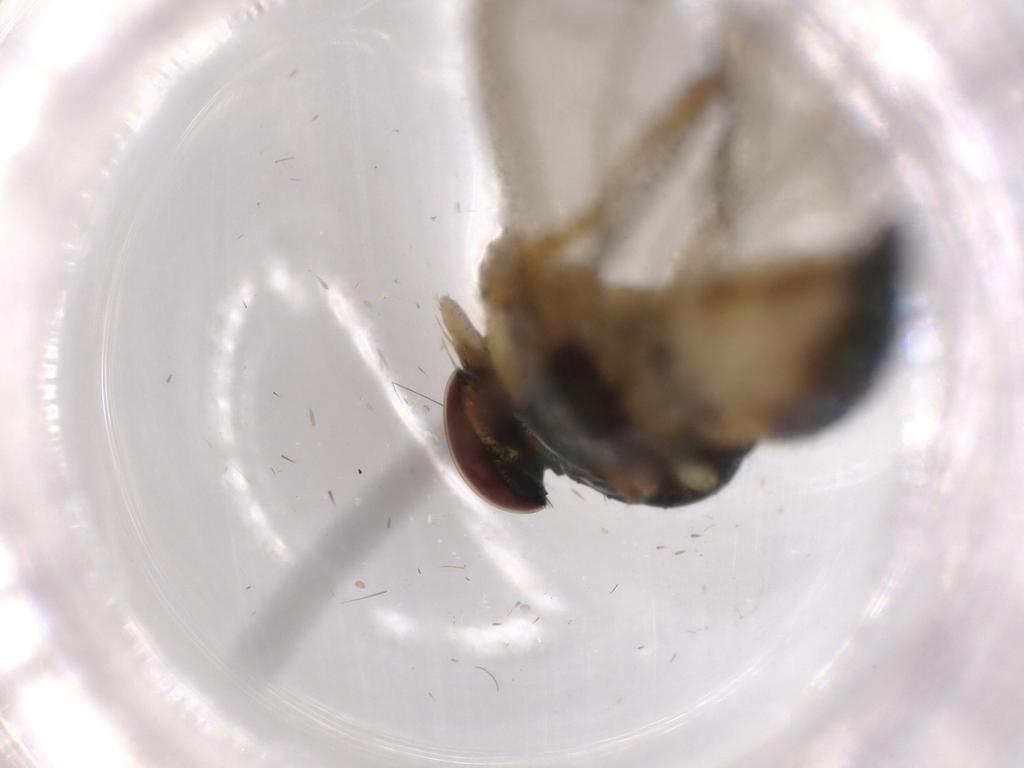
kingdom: Animalia
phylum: Arthropoda
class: Insecta
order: Diptera
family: Dolichopodidae
